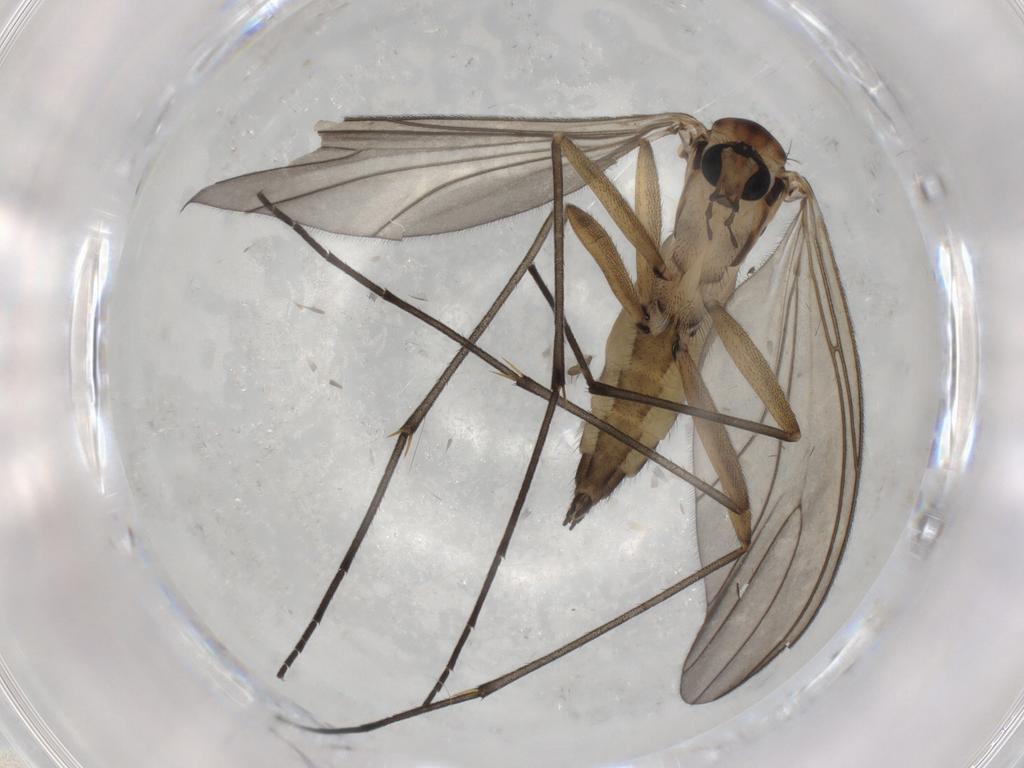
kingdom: Animalia
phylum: Arthropoda
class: Insecta
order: Diptera
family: Sciaridae
